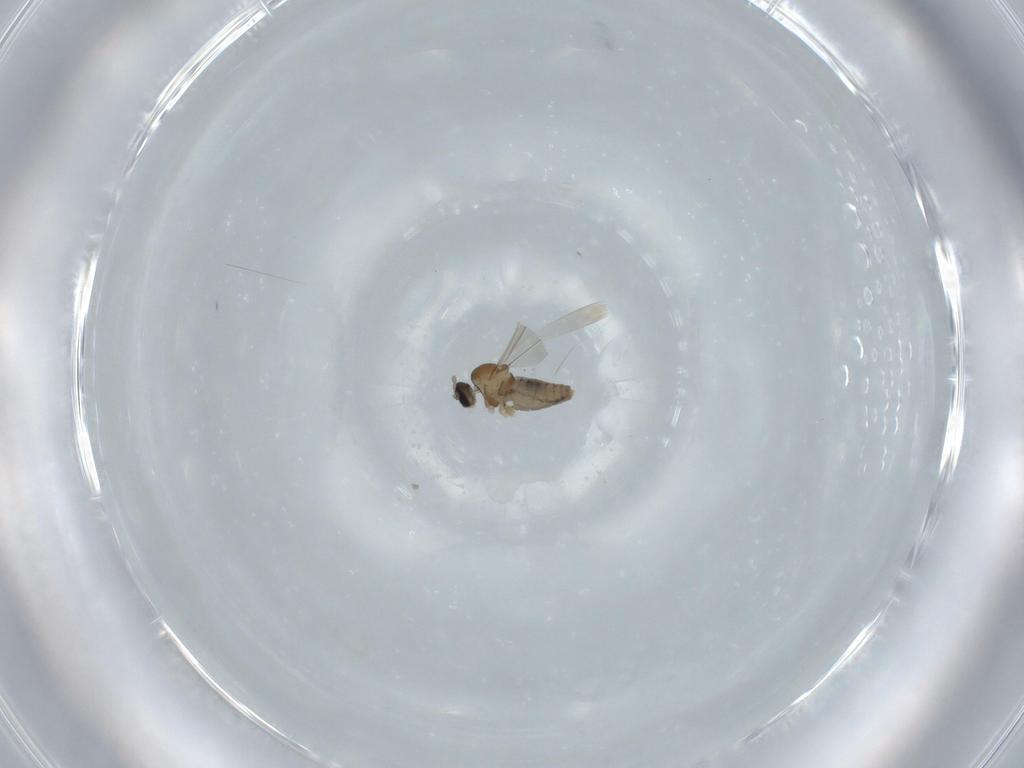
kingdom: Animalia
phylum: Arthropoda
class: Insecta
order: Diptera
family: Cecidomyiidae
